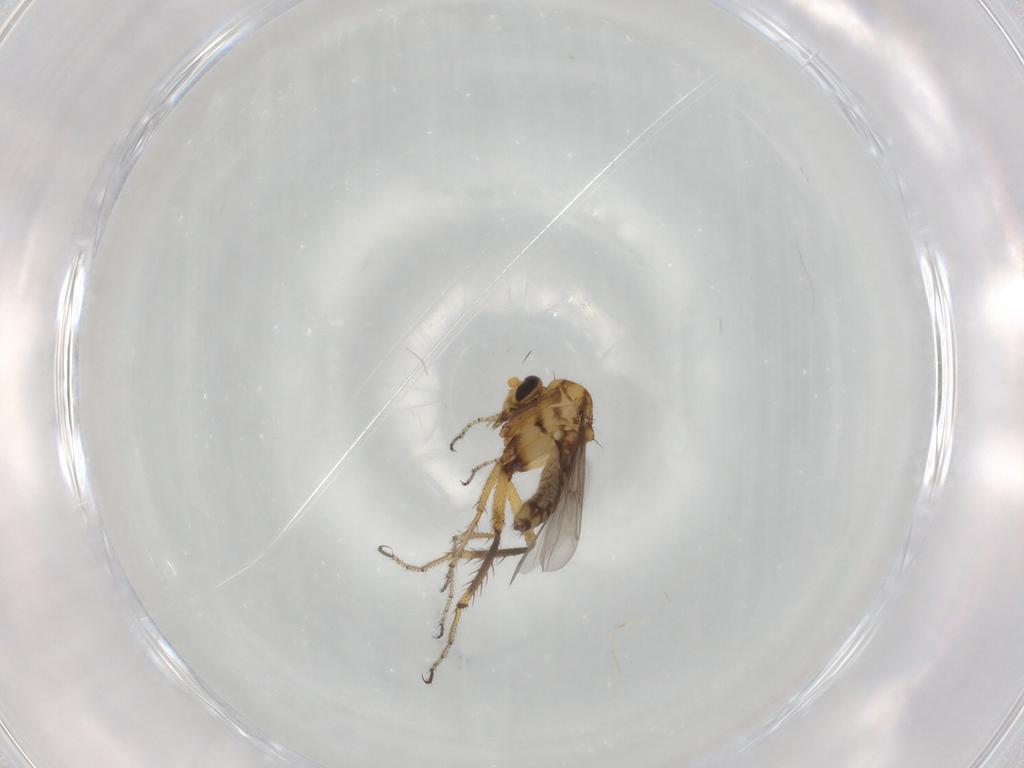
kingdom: Animalia
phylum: Arthropoda
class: Insecta
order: Diptera
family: Ceratopogonidae
